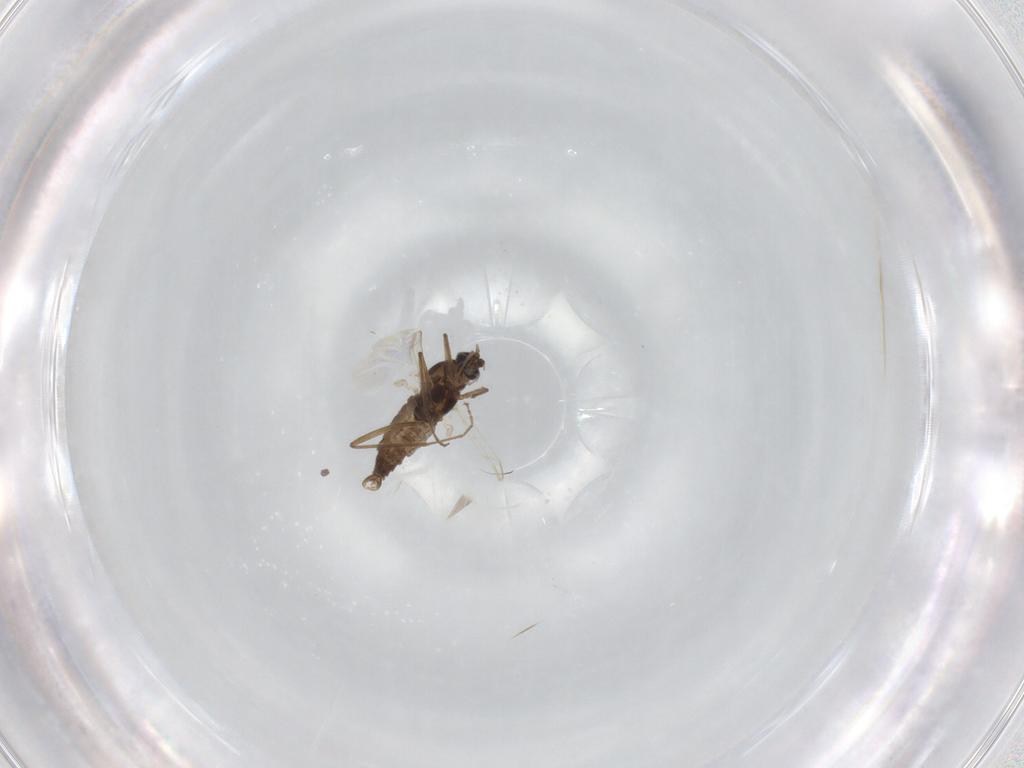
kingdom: Animalia
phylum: Arthropoda
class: Insecta
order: Diptera
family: Cecidomyiidae
